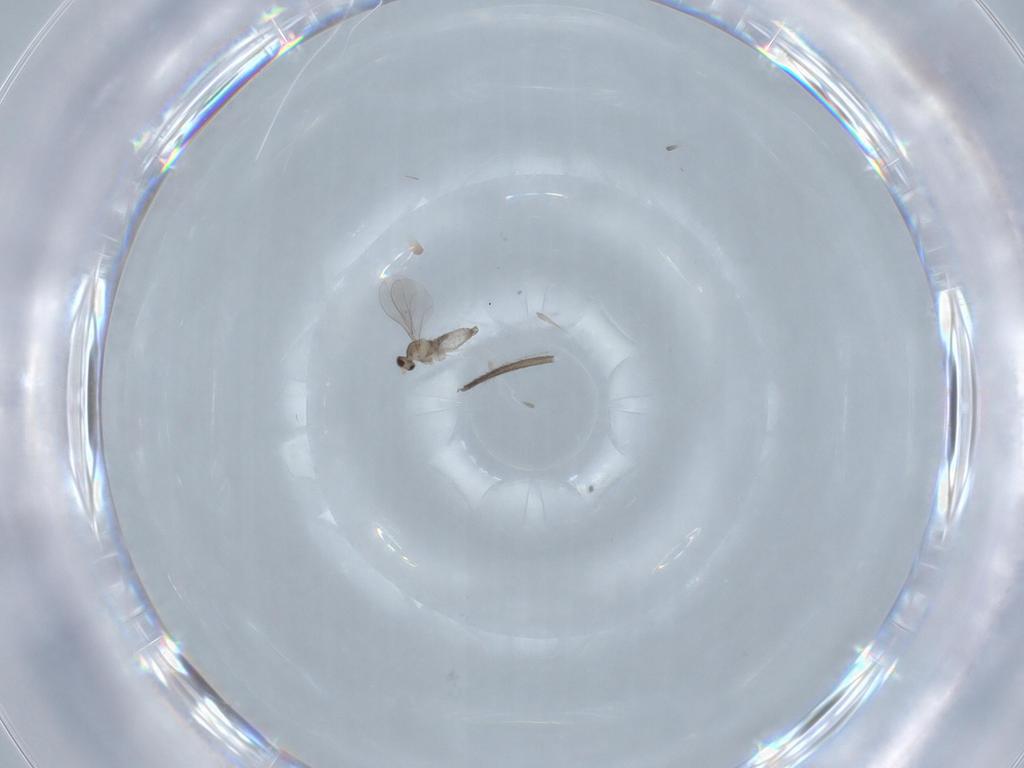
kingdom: Animalia
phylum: Arthropoda
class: Insecta
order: Diptera
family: Cecidomyiidae
